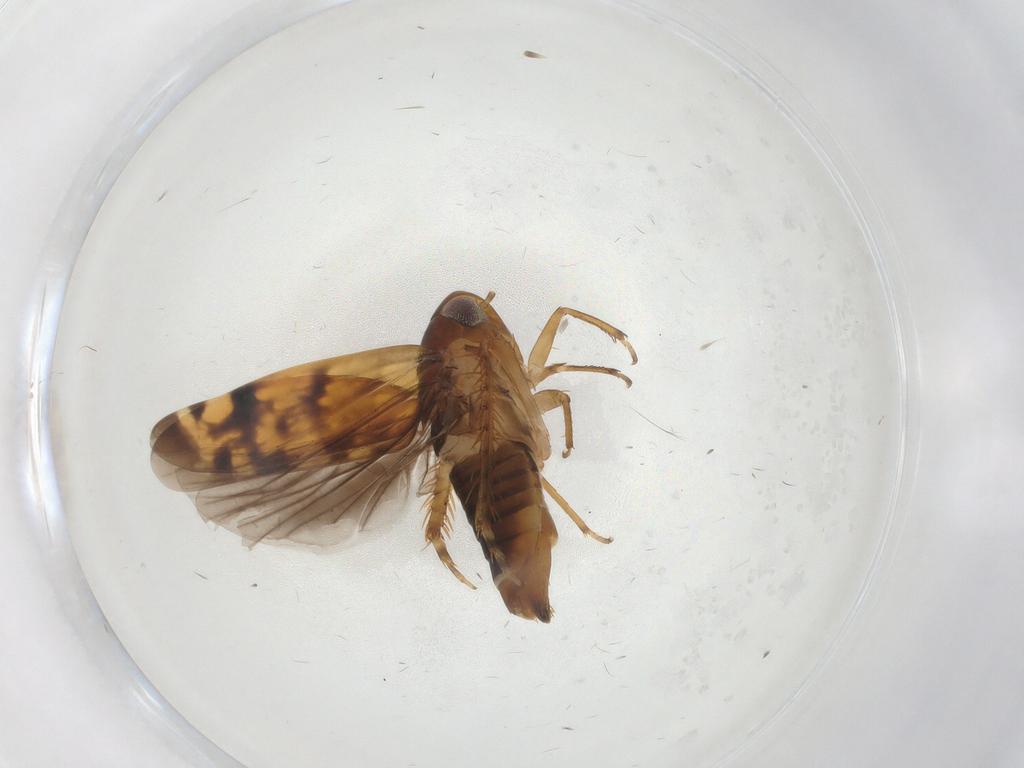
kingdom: Animalia
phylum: Arthropoda
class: Insecta
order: Hemiptera
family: Cicadellidae
